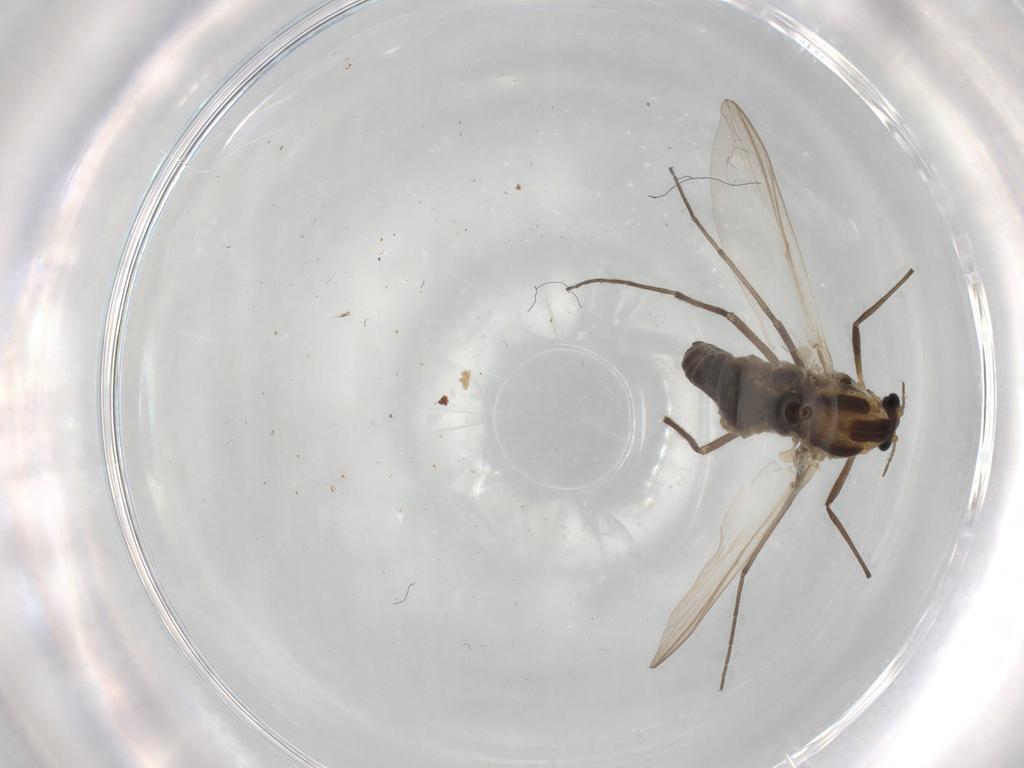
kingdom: Animalia
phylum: Arthropoda
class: Insecta
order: Diptera
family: Chironomidae
